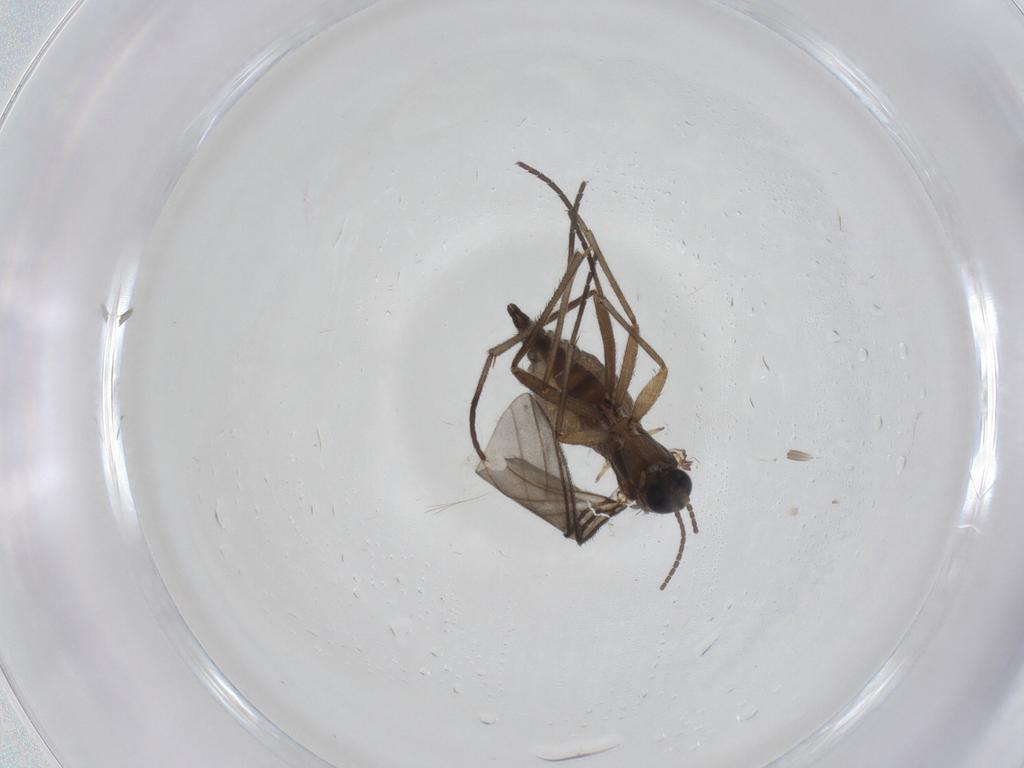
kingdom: Animalia
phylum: Arthropoda
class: Insecta
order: Diptera
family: Sciaridae
